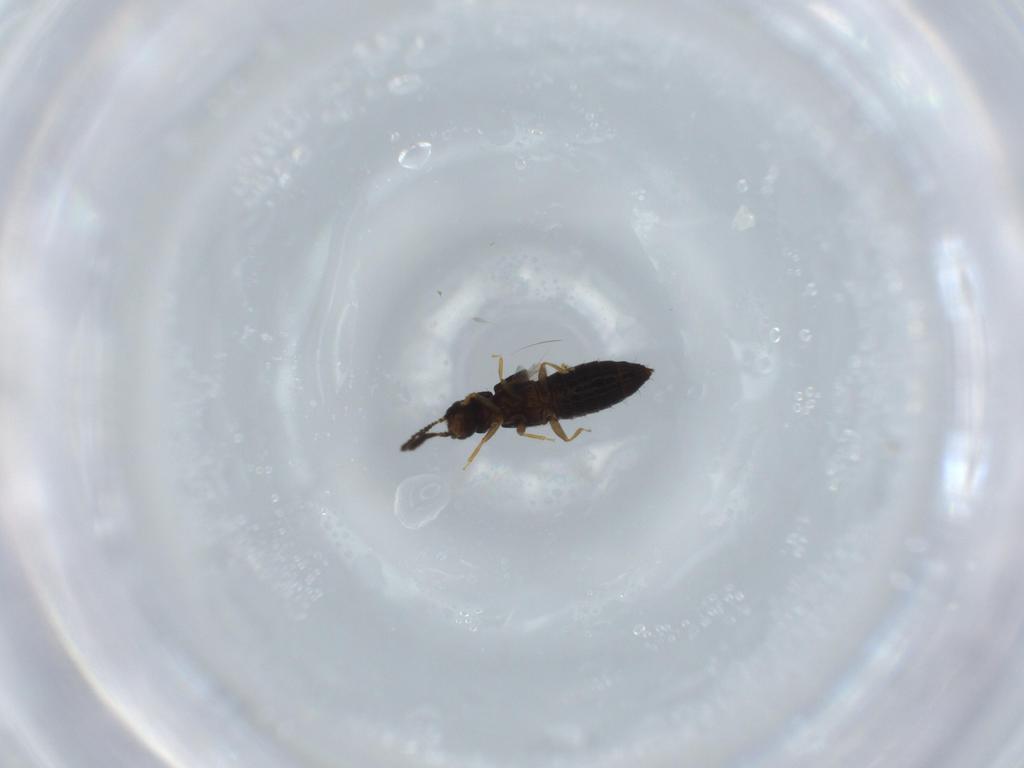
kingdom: Animalia
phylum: Arthropoda
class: Insecta
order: Coleoptera
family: Staphylinidae
